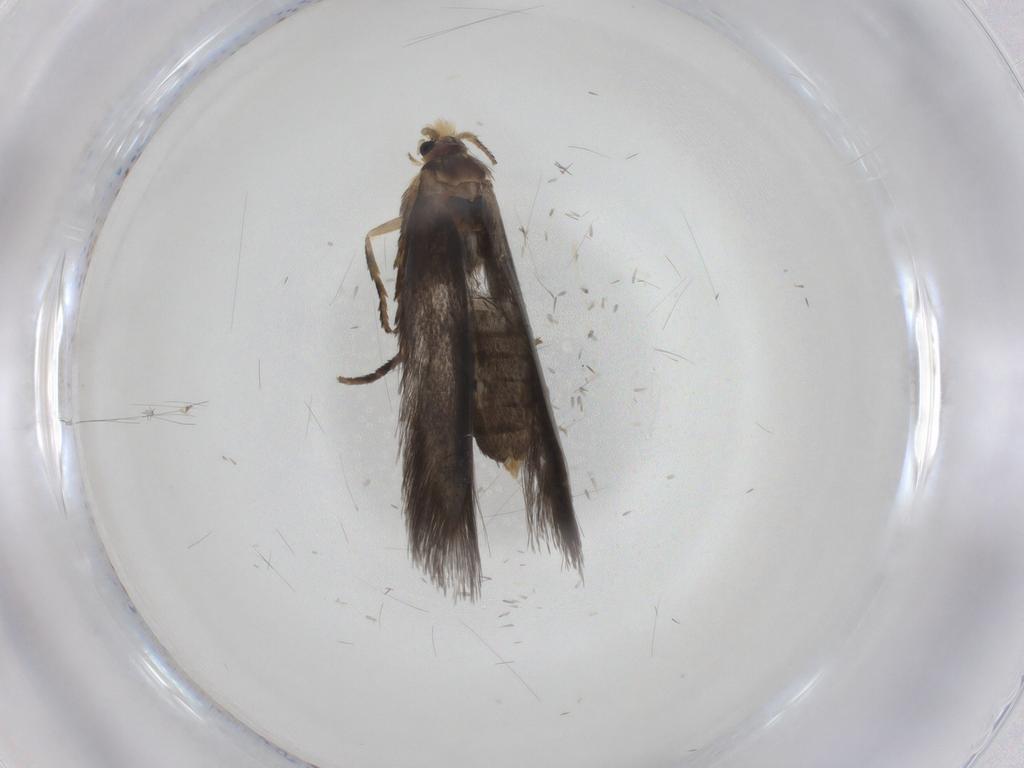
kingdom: Animalia
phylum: Arthropoda
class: Insecta
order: Lepidoptera
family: Nepticulidae
